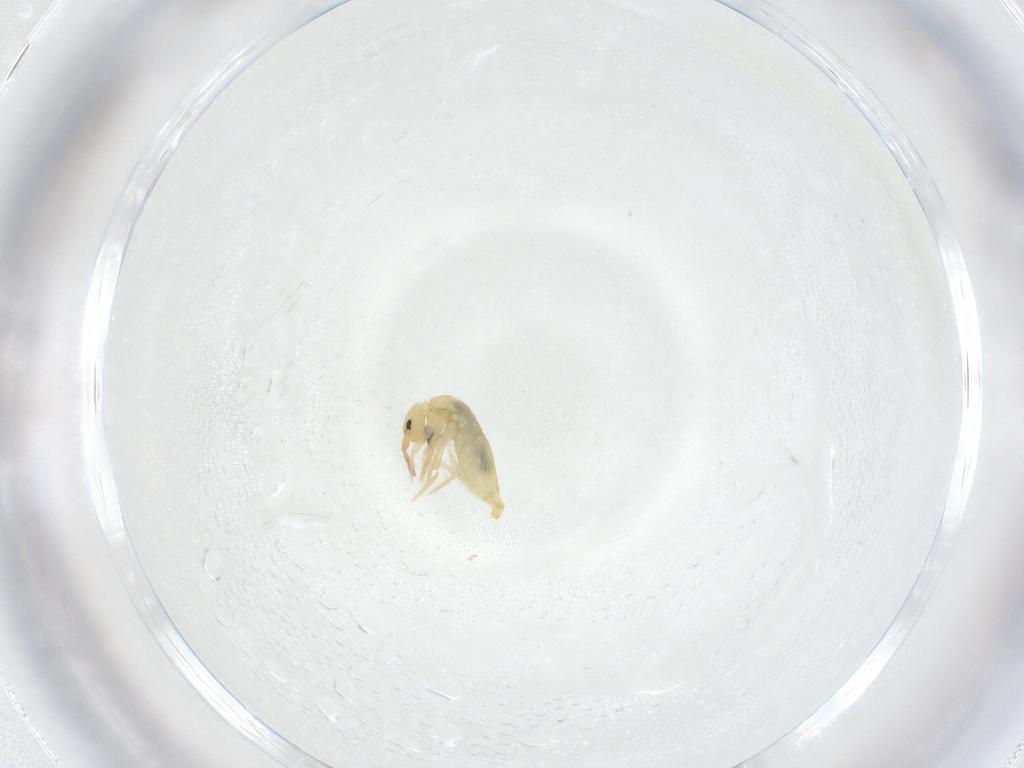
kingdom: Animalia
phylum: Arthropoda
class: Collembola
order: Entomobryomorpha
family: Entomobryidae
